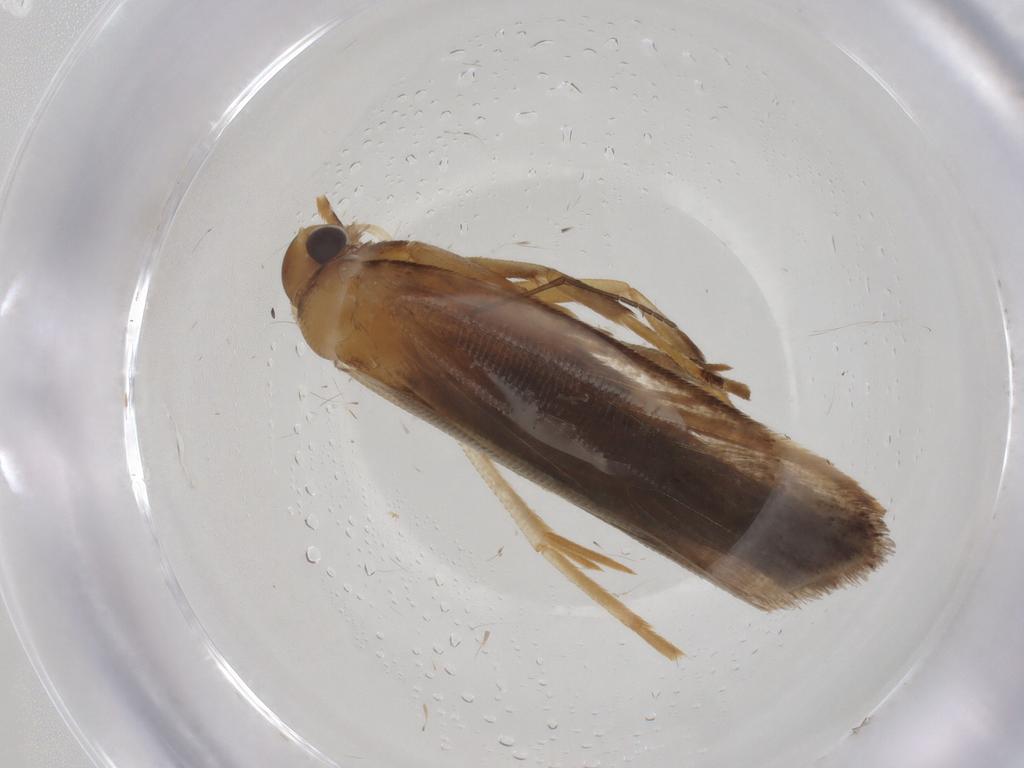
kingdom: Animalia
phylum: Arthropoda
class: Insecta
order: Lepidoptera
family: Gelechiidae
